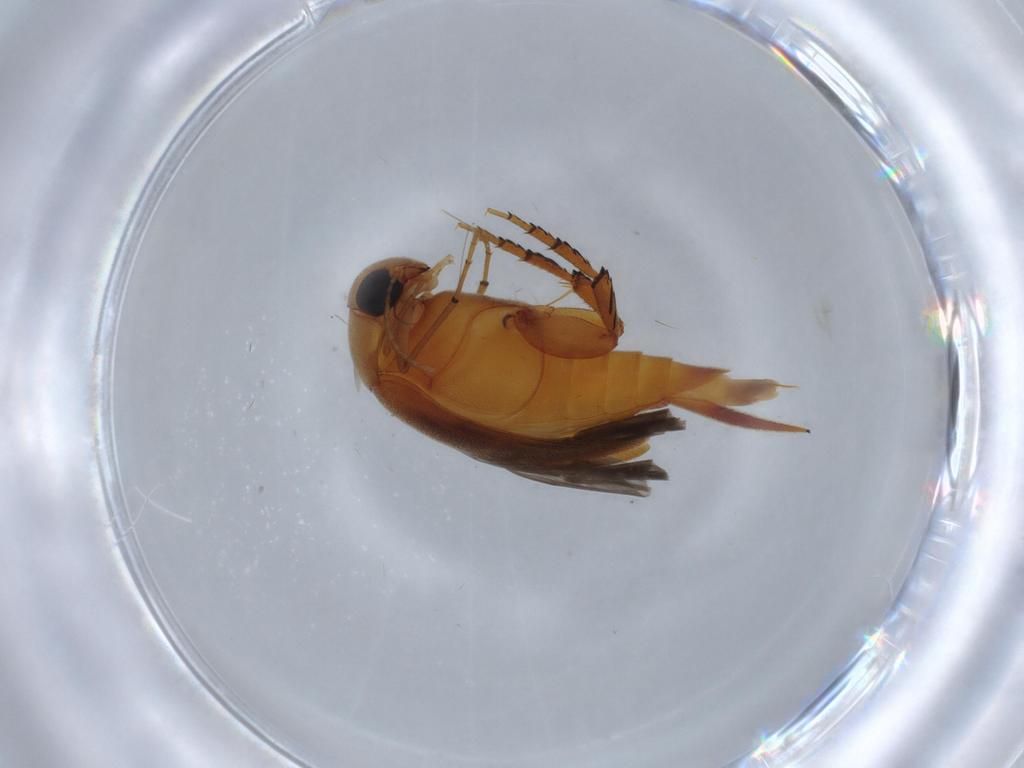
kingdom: Animalia
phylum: Arthropoda
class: Insecta
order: Coleoptera
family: Mordellidae
